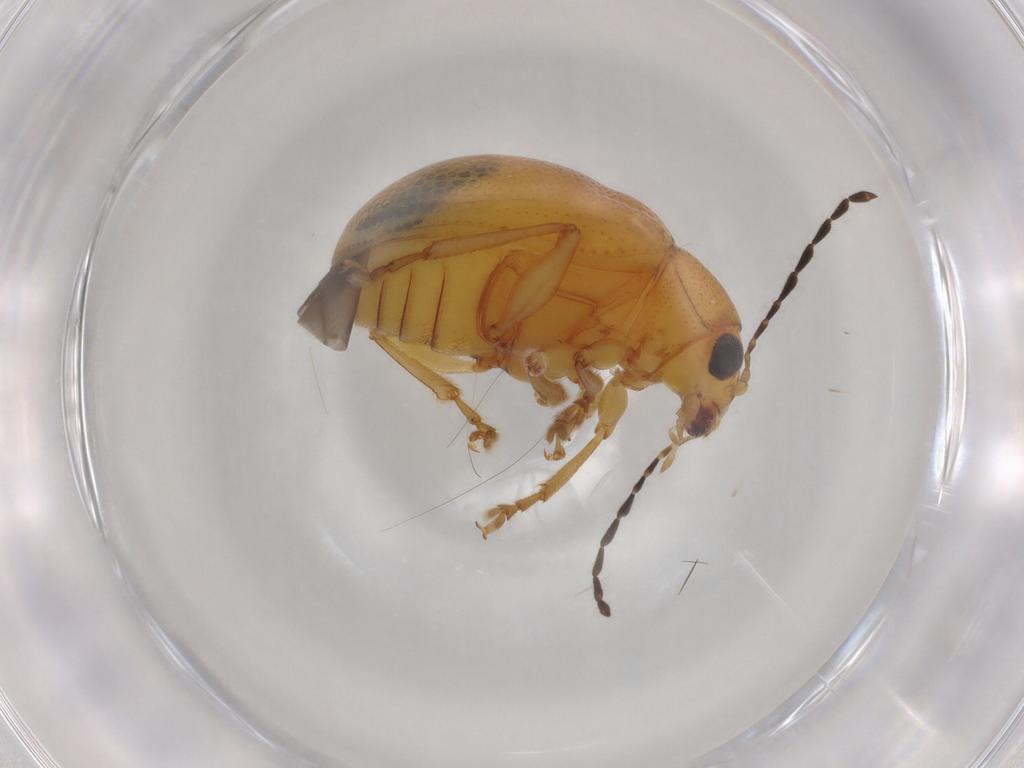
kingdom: Animalia
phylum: Arthropoda
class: Insecta
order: Coleoptera
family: Chrysomelidae
